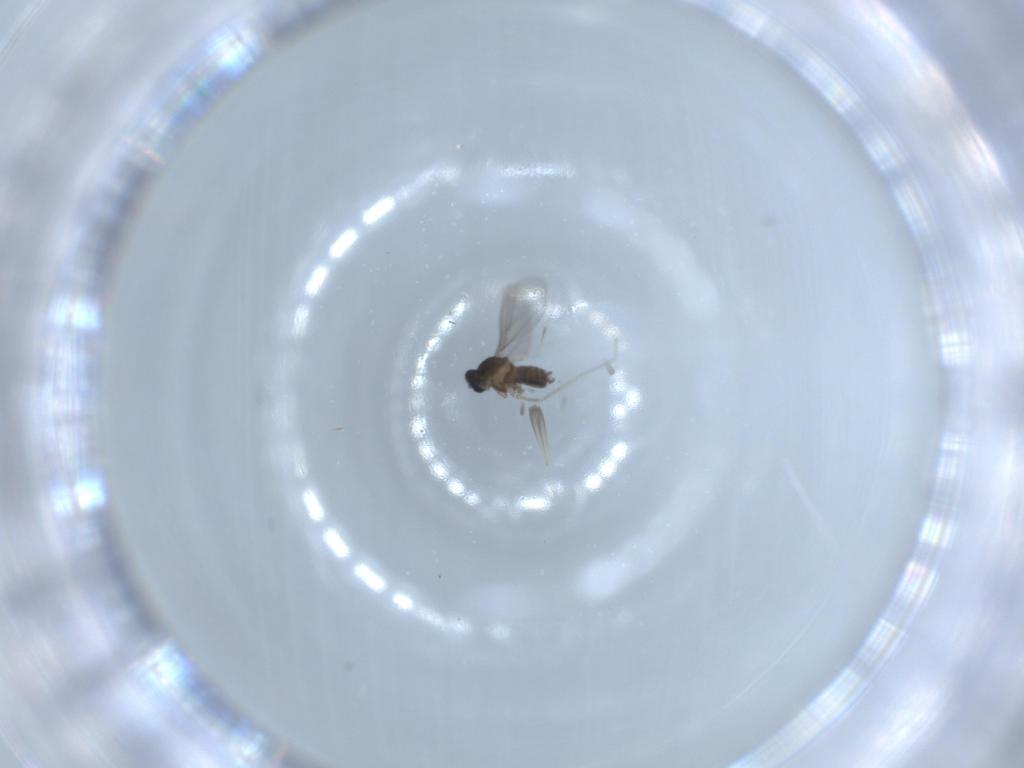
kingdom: Animalia
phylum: Arthropoda
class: Insecta
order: Diptera
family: Cecidomyiidae
